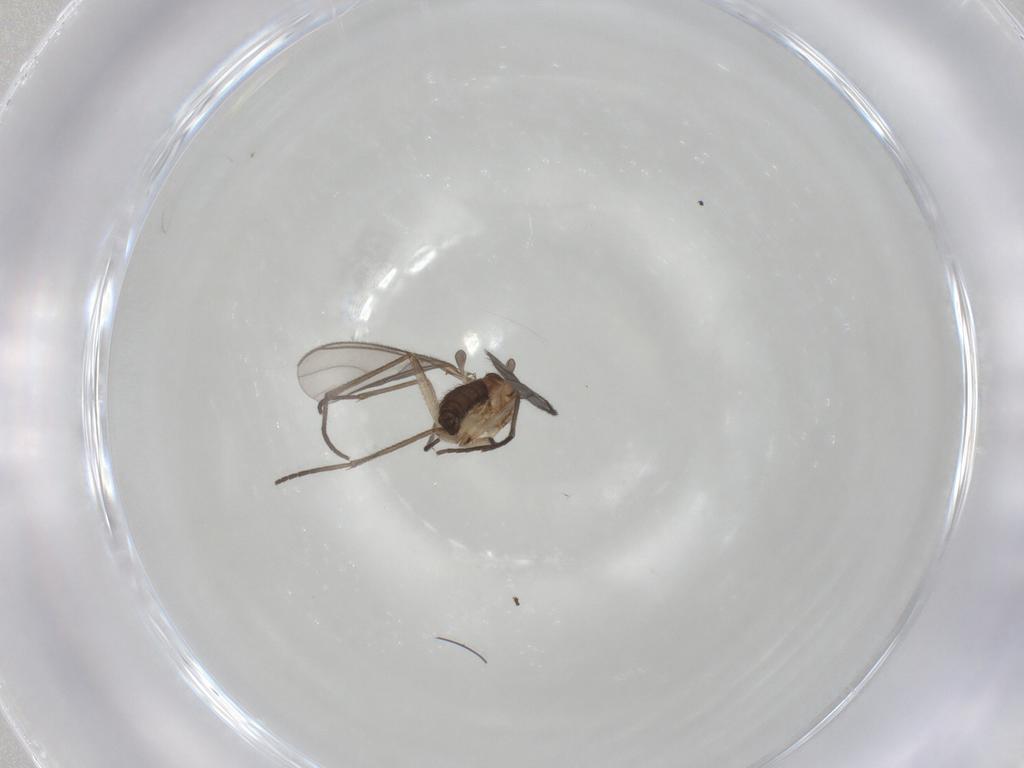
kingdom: Animalia
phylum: Arthropoda
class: Insecta
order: Diptera
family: Sciaridae
